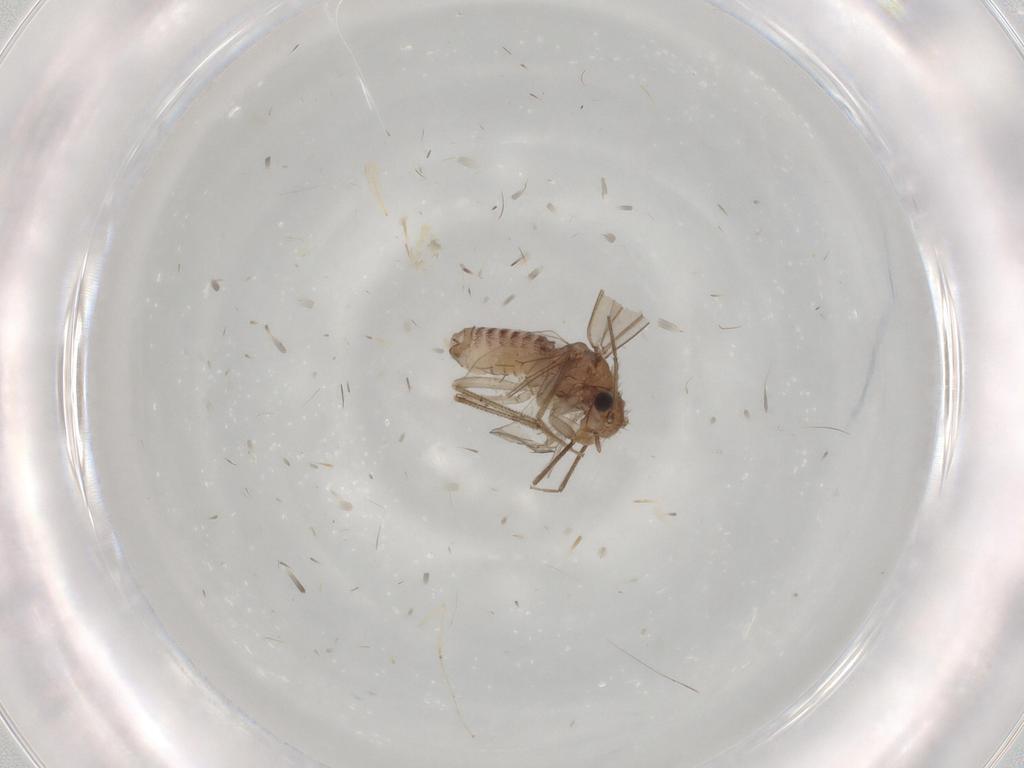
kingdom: Animalia
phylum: Arthropoda
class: Insecta
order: Psocodea
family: Caeciliusidae
